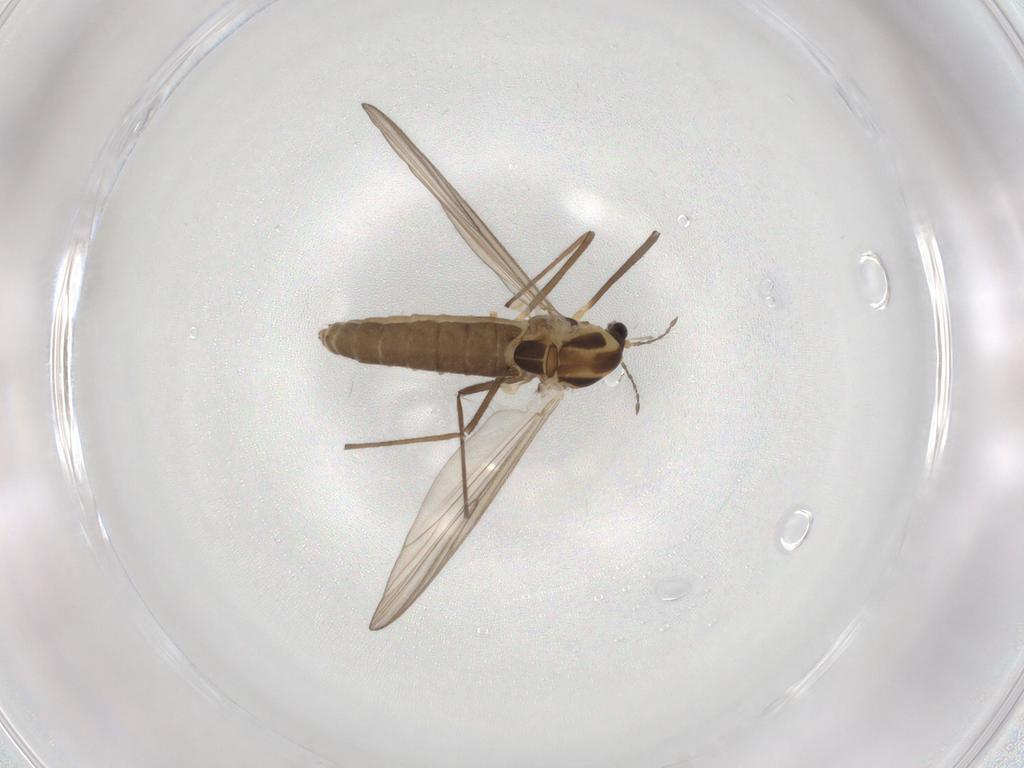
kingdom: Animalia
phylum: Arthropoda
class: Insecta
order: Diptera
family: Chironomidae
